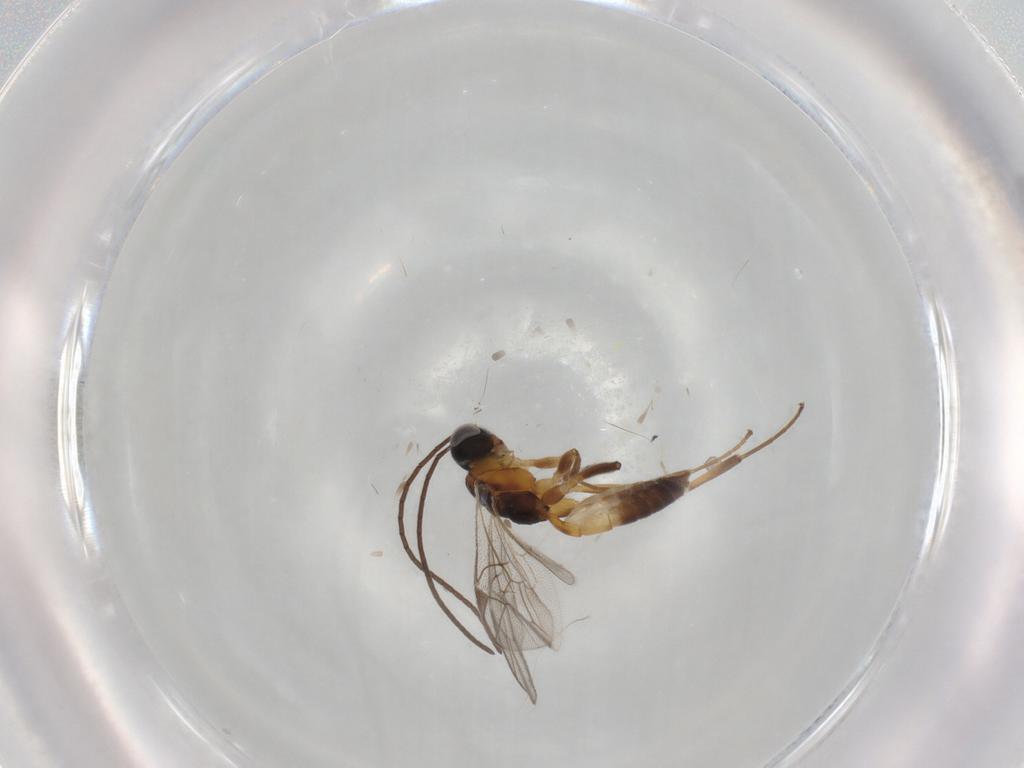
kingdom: Animalia
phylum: Arthropoda
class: Insecta
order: Hymenoptera
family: Ichneumonidae
